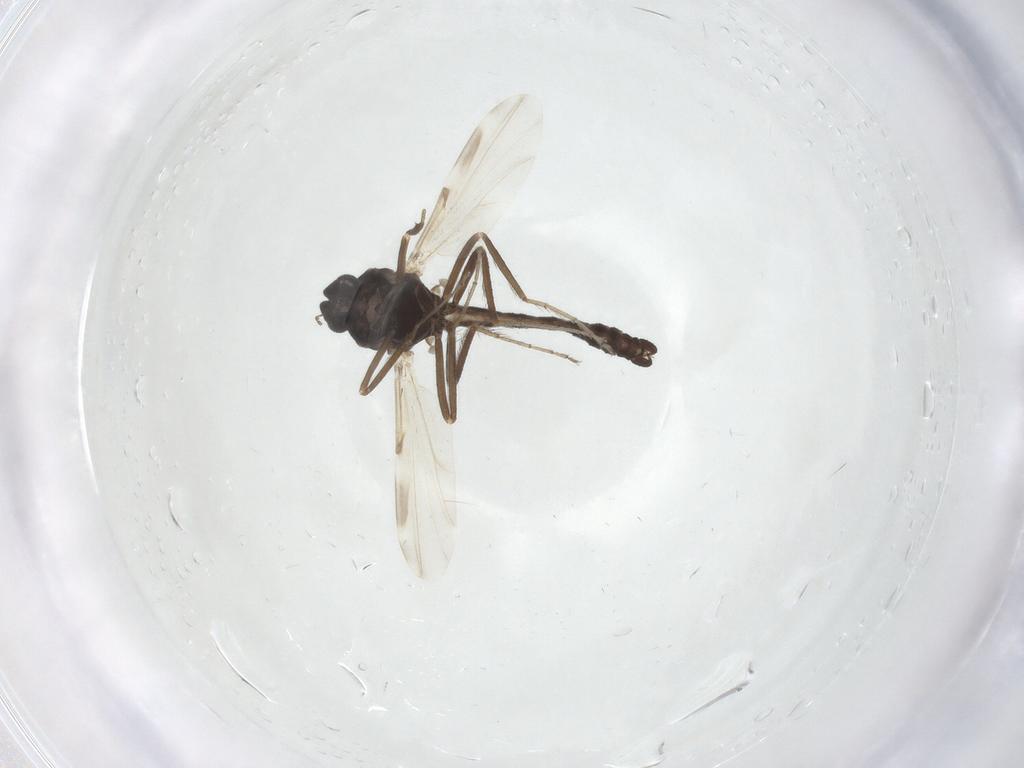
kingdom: Animalia
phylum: Arthropoda
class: Insecta
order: Diptera
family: Ceratopogonidae
